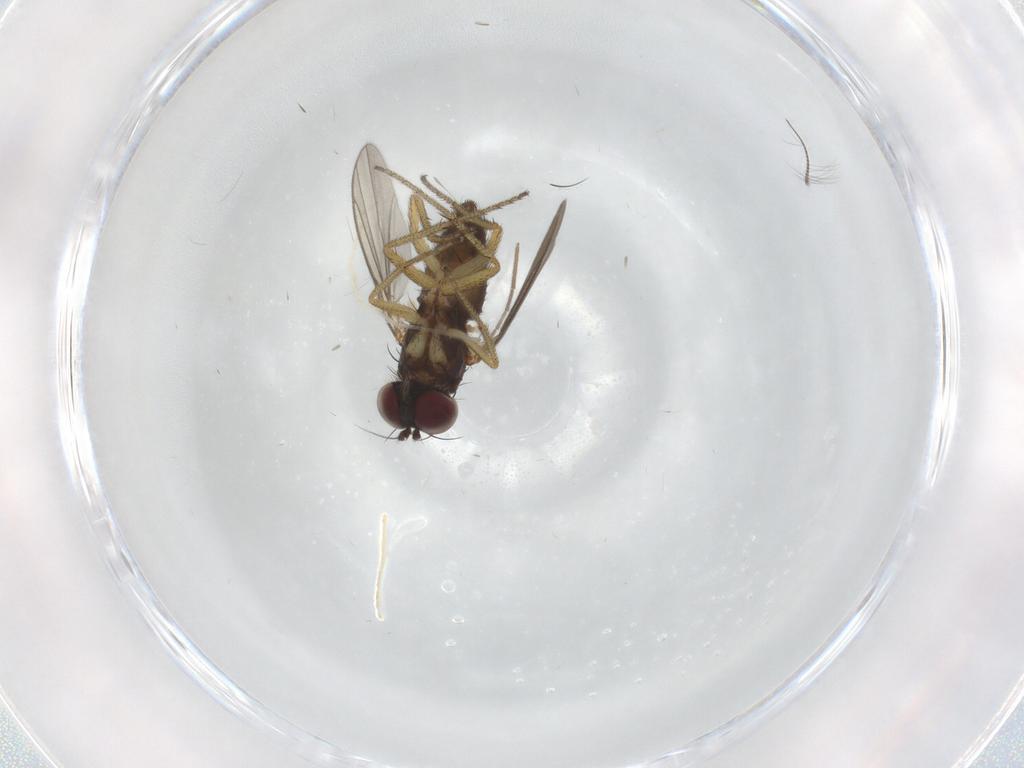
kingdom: Animalia
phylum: Arthropoda
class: Insecta
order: Diptera
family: Dolichopodidae
